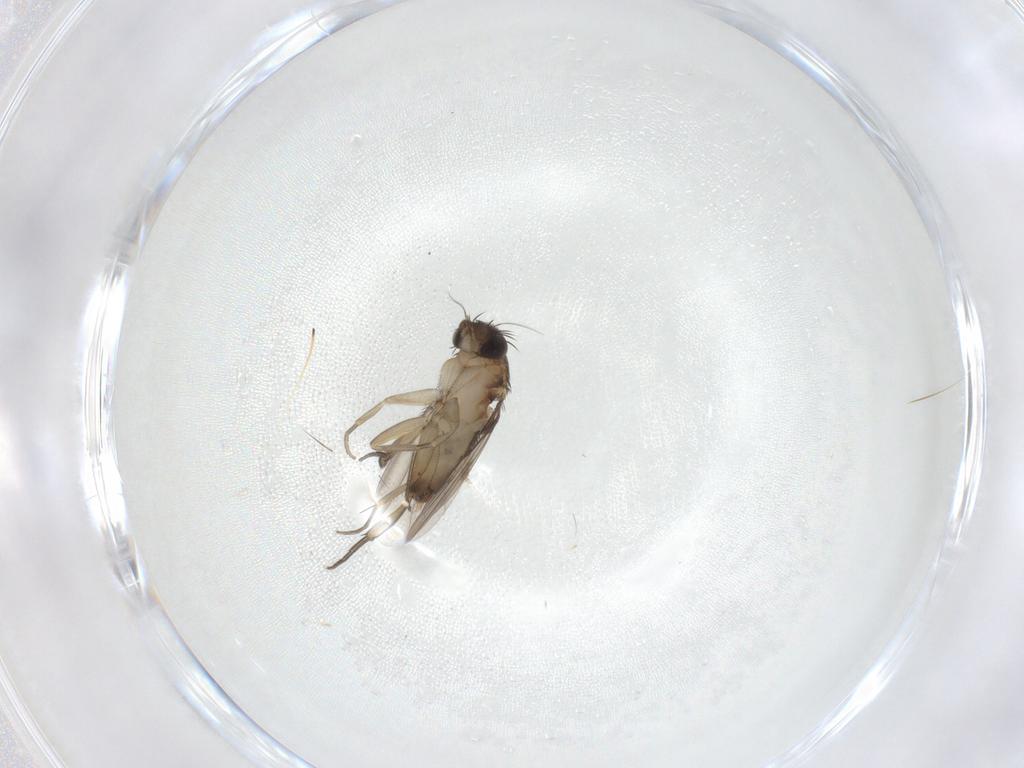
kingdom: Animalia
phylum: Arthropoda
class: Insecta
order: Diptera
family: Phoridae
